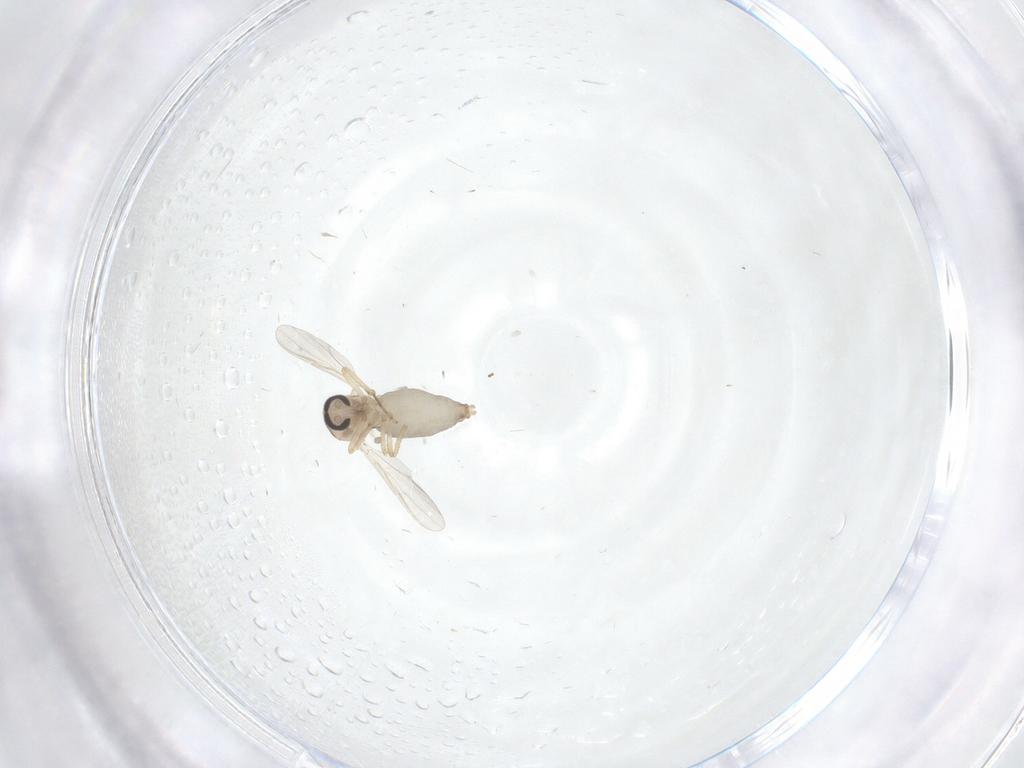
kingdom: Animalia
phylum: Arthropoda
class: Insecta
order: Diptera
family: Ceratopogonidae
